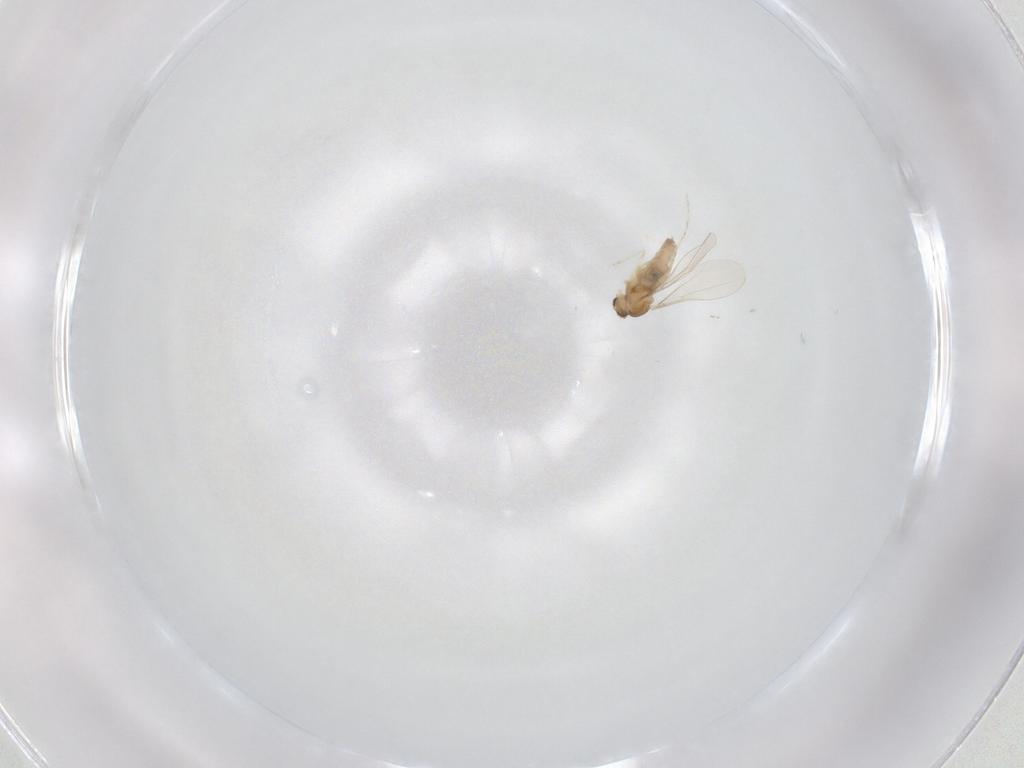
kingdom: Animalia
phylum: Arthropoda
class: Insecta
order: Diptera
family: Cecidomyiidae
